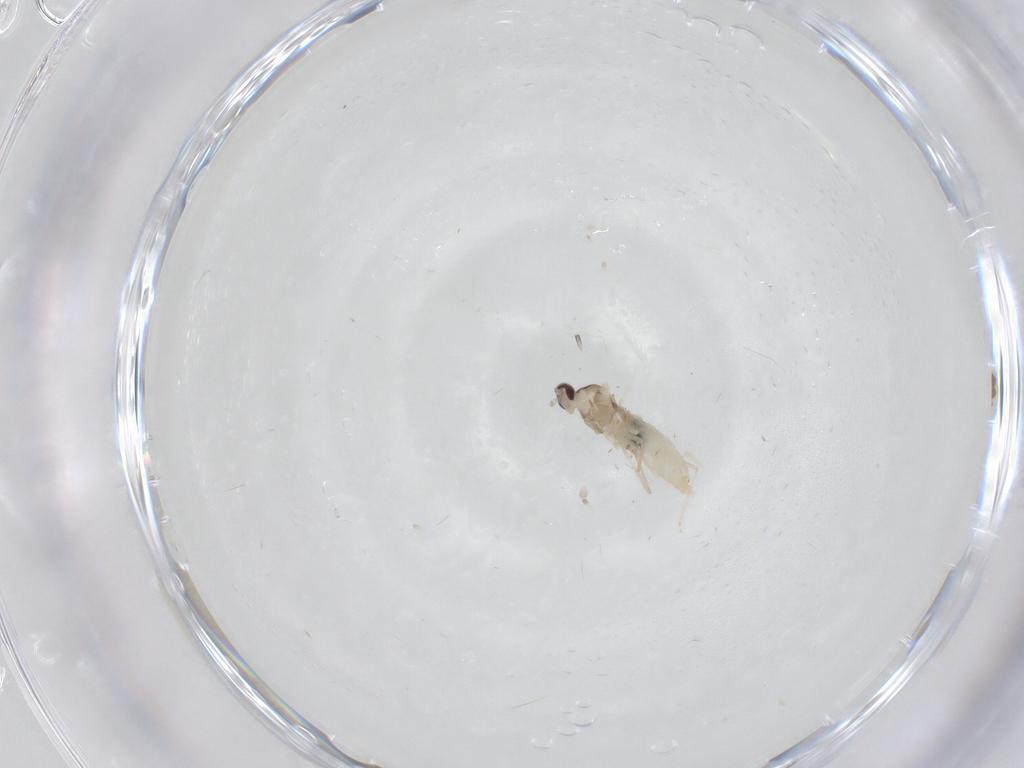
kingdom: Animalia
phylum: Arthropoda
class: Insecta
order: Diptera
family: Cecidomyiidae
